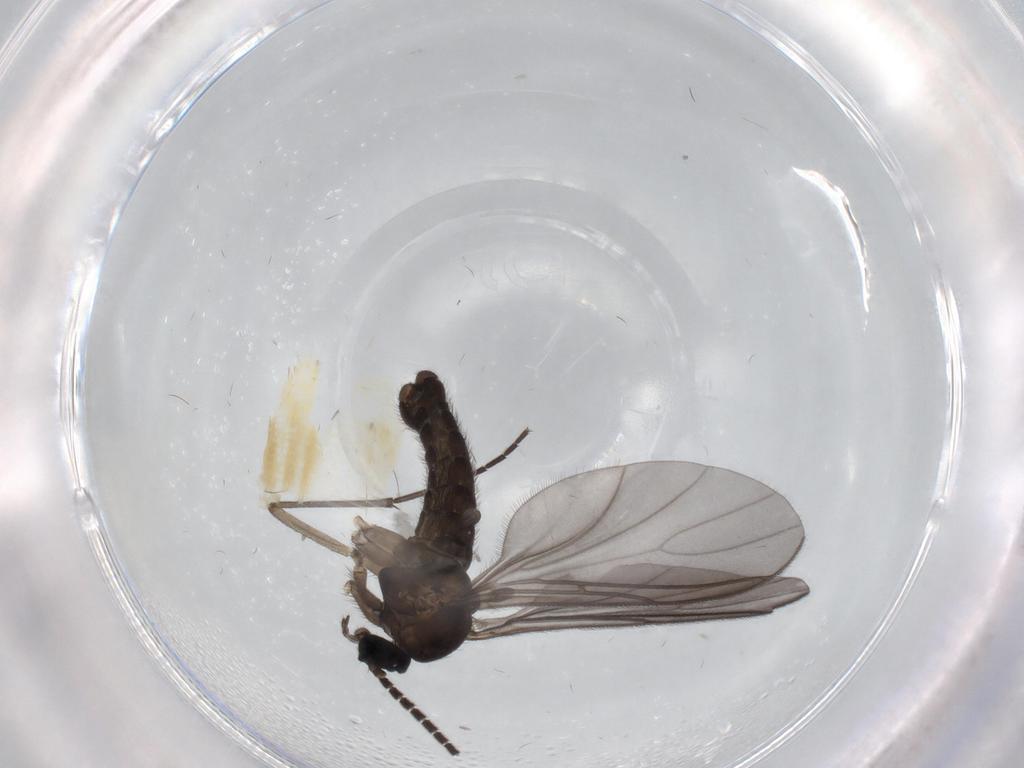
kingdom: Animalia
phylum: Arthropoda
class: Insecta
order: Diptera
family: Sciaridae
